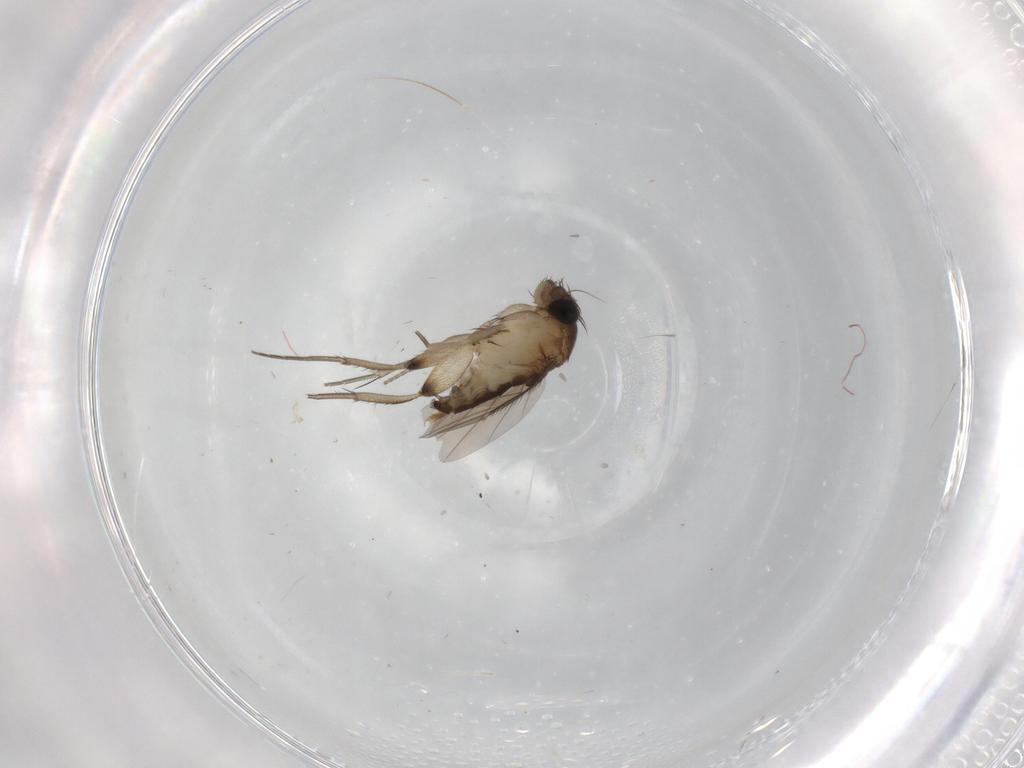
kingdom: Animalia
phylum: Arthropoda
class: Insecta
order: Diptera
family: Phoridae
